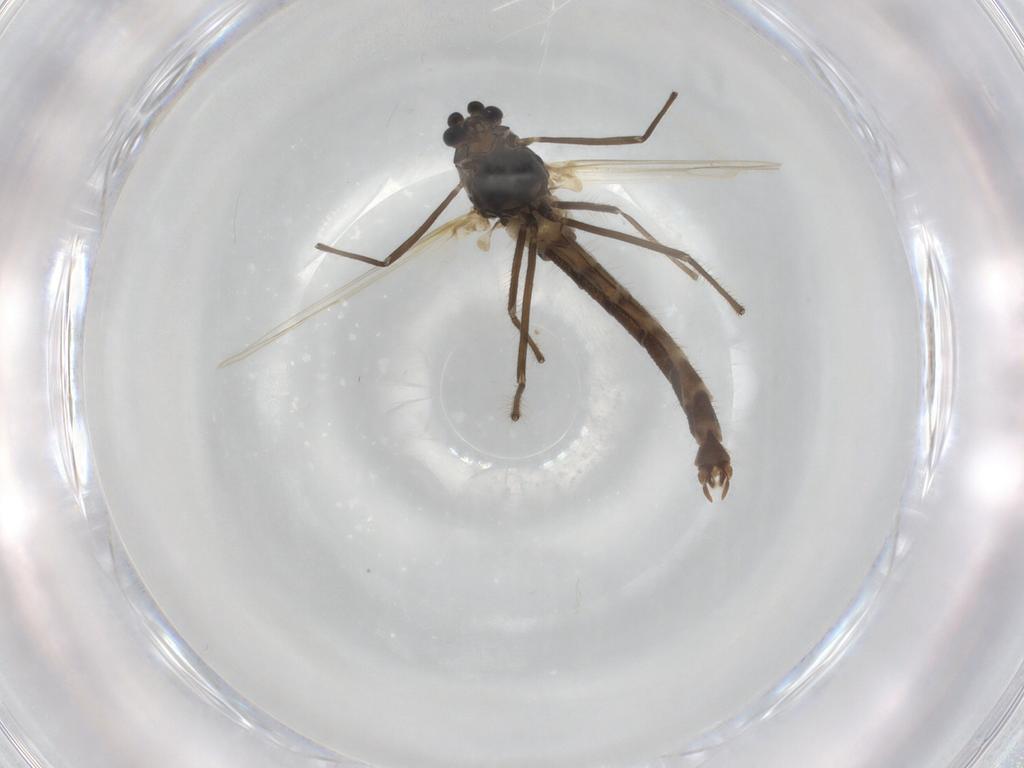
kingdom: Animalia
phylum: Arthropoda
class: Insecta
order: Diptera
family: Chironomidae
